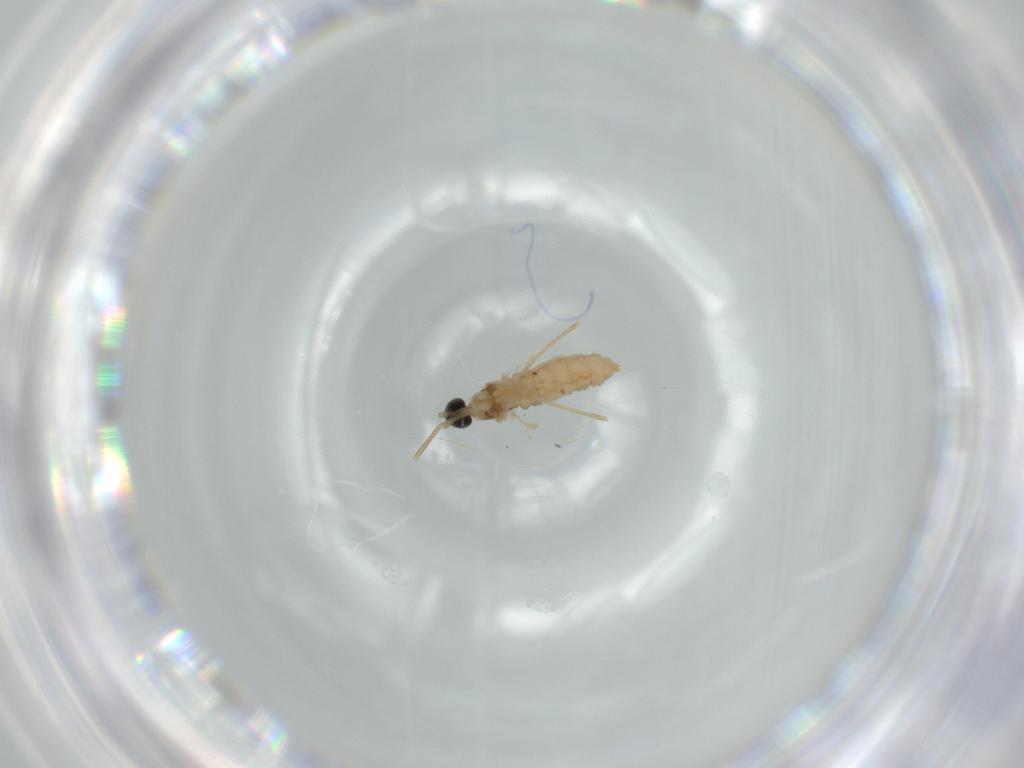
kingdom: Animalia
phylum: Arthropoda
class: Insecta
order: Diptera
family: Cecidomyiidae
